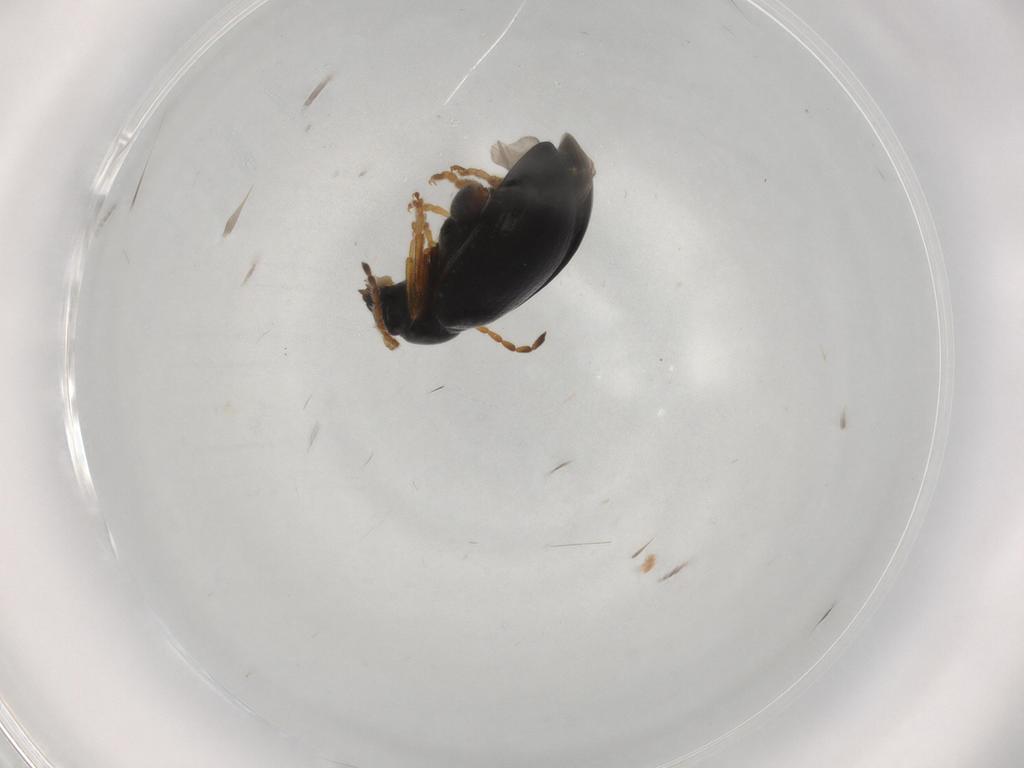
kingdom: Animalia
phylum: Arthropoda
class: Insecta
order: Coleoptera
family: Chrysomelidae
